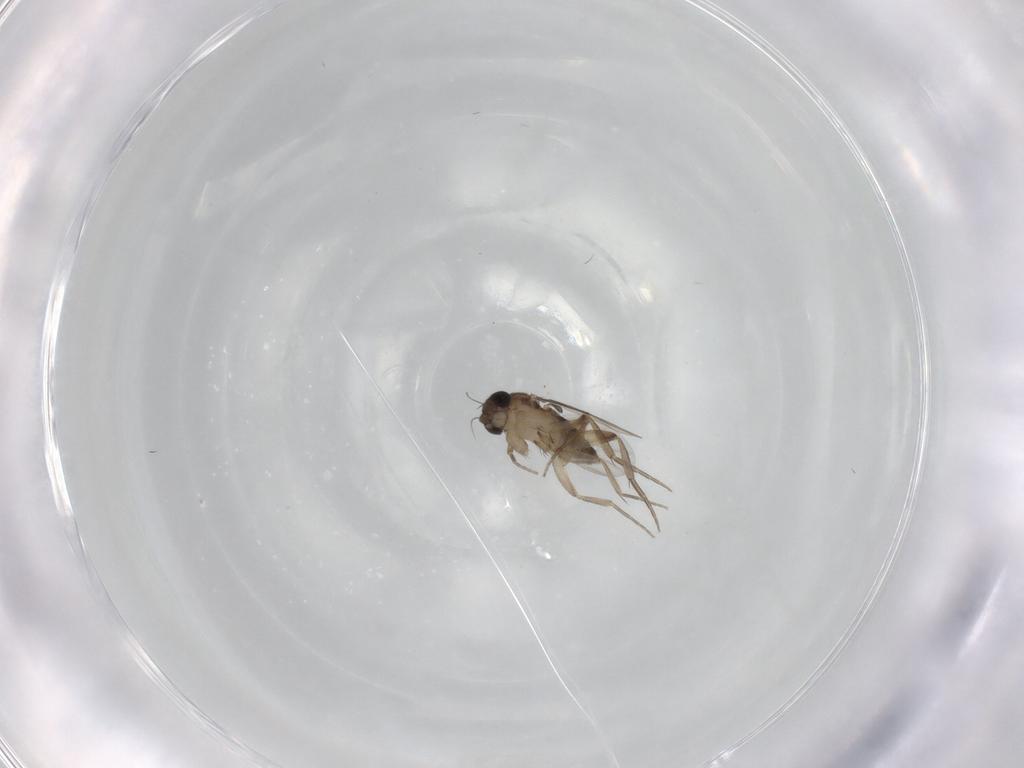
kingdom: Animalia
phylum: Arthropoda
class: Insecta
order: Diptera
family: Phoridae
